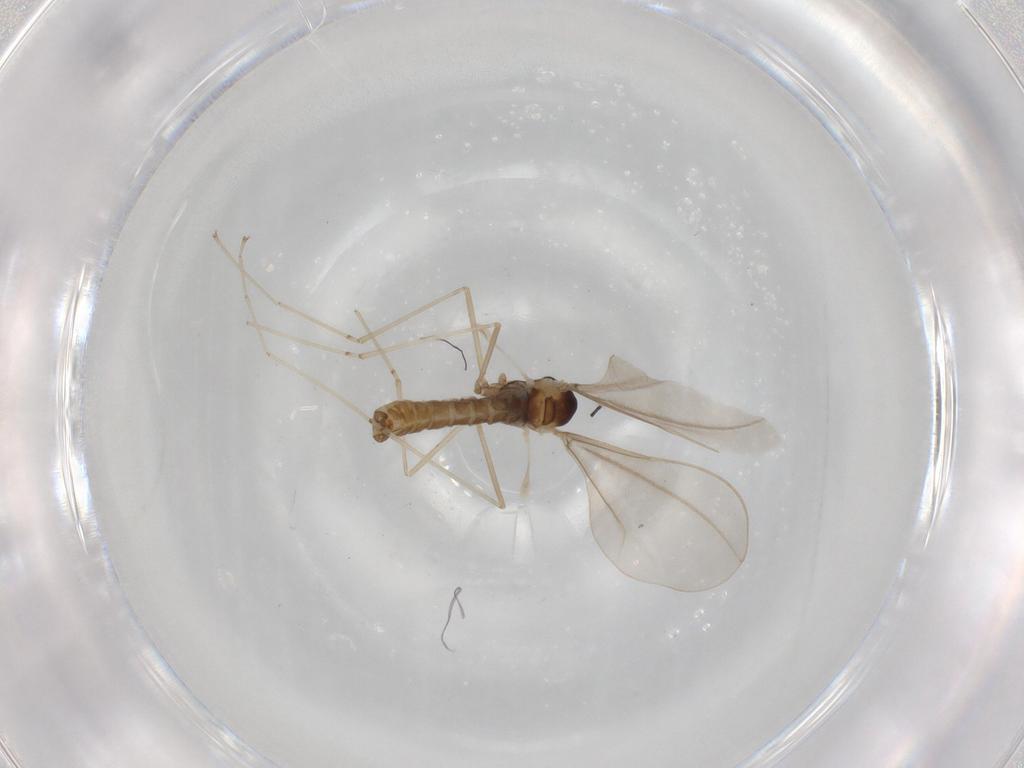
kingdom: Animalia
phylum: Arthropoda
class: Insecta
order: Diptera
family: Cecidomyiidae
